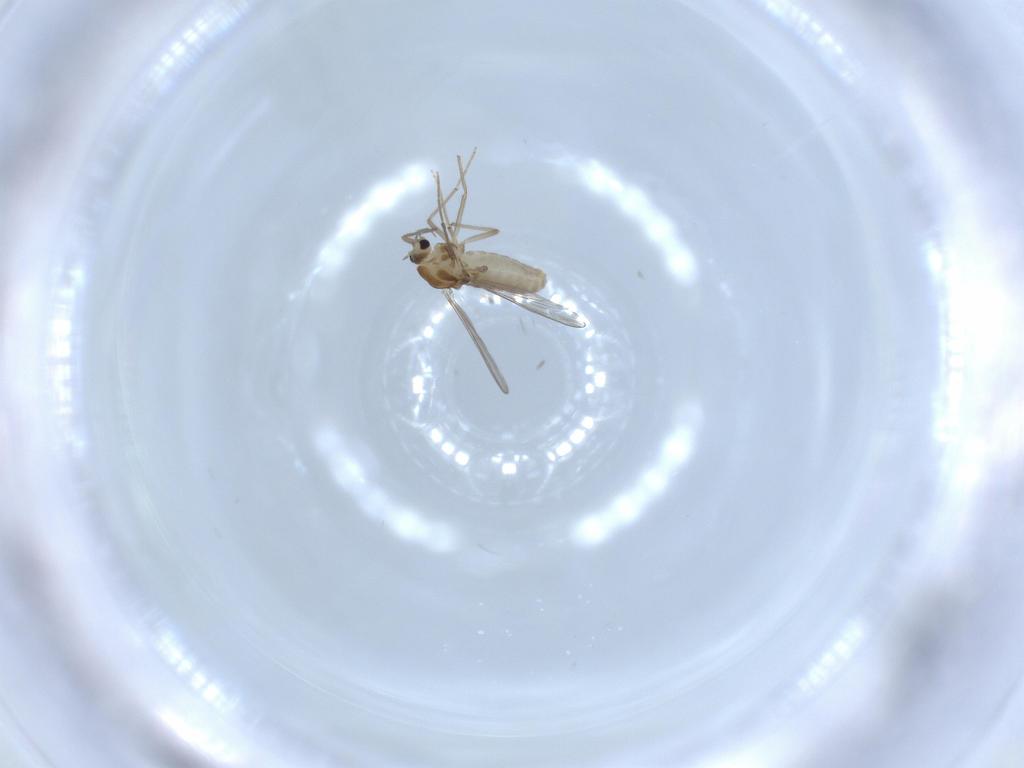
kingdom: Animalia
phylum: Arthropoda
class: Insecta
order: Diptera
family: Chironomidae
